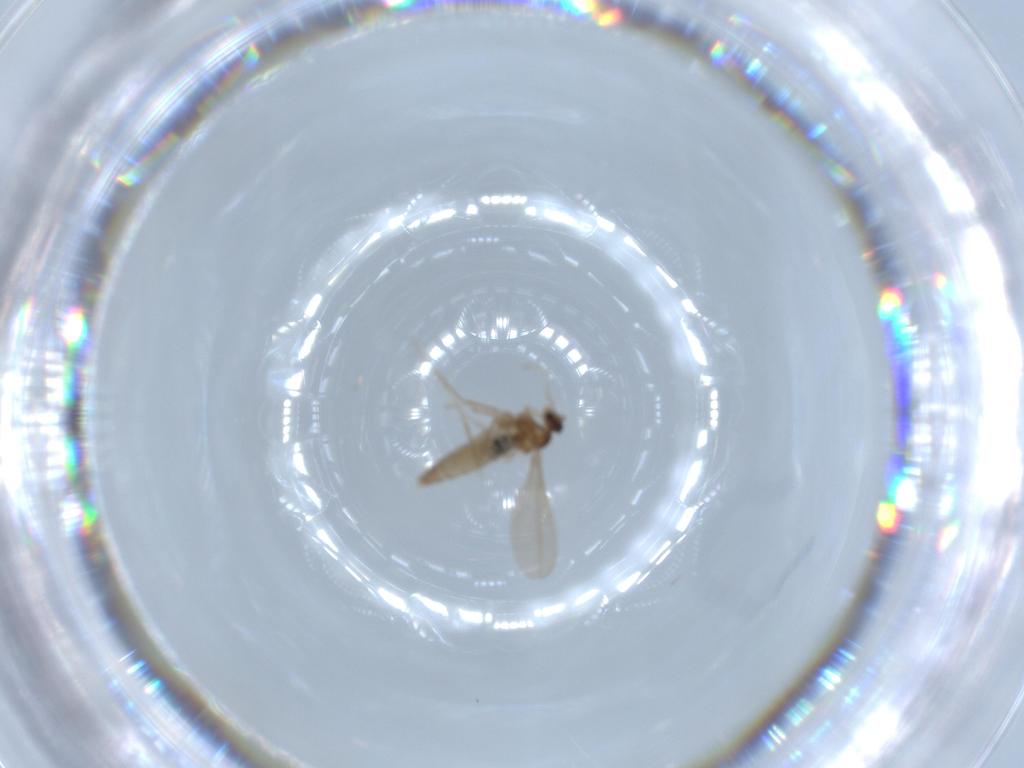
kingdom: Animalia
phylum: Arthropoda
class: Insecta
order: Diptera
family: Cecidomyiidae
